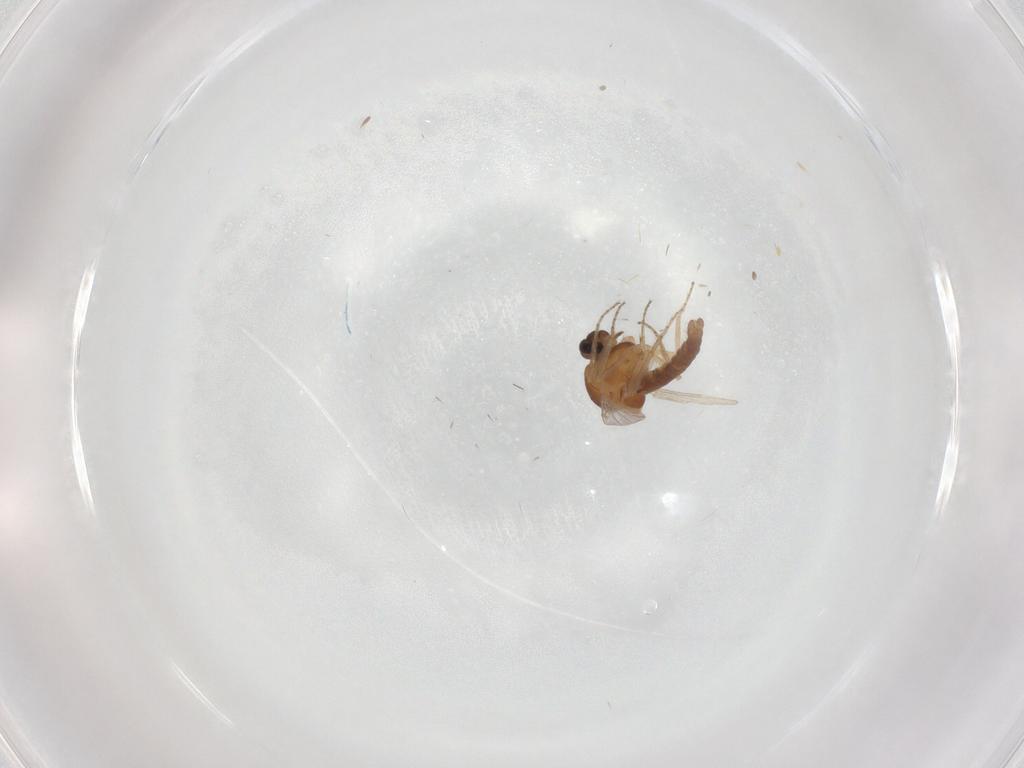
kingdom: Animalia
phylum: Arthropoda
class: Insecta
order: Diptera
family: Ceratopogonidae
